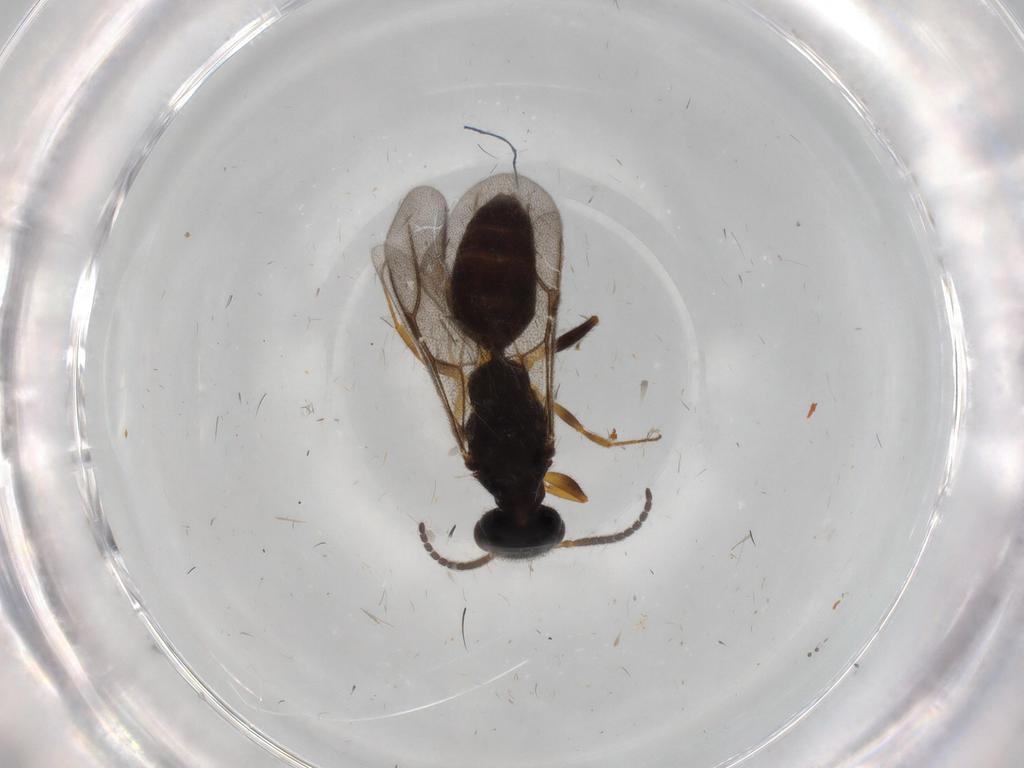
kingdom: Animalia
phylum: Arthropoda
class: Insecta
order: Hymenoptera
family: Bethylidae
